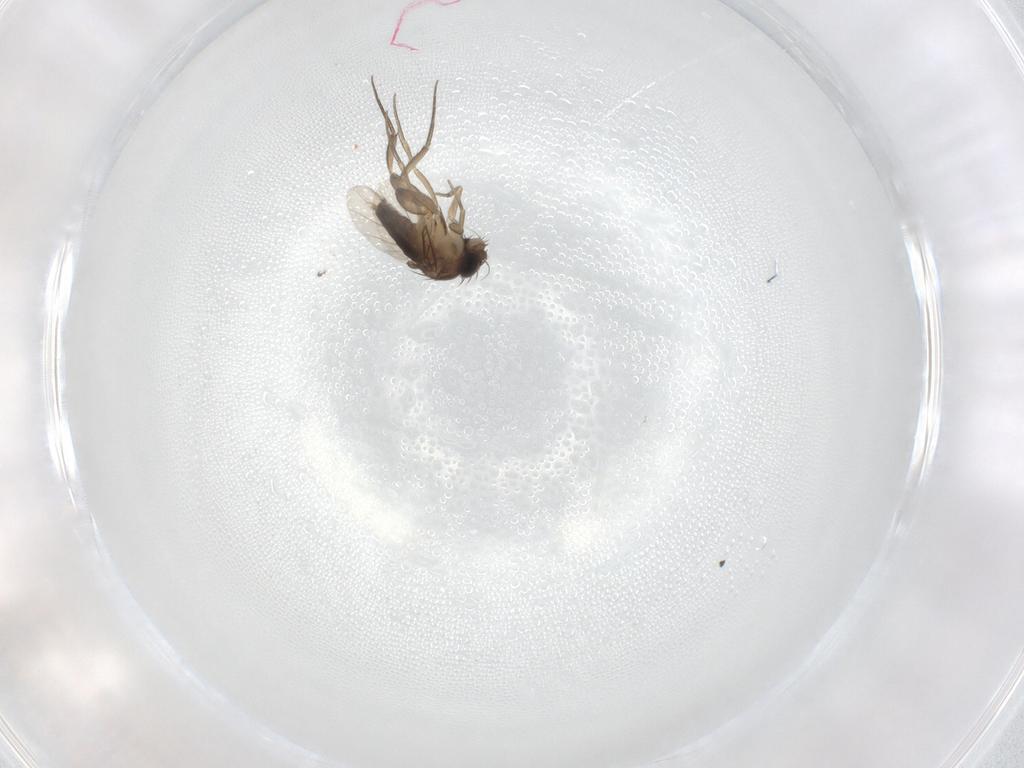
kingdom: Animalia
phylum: Arthropoda
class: Insecta
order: Diptera
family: Phoridae
